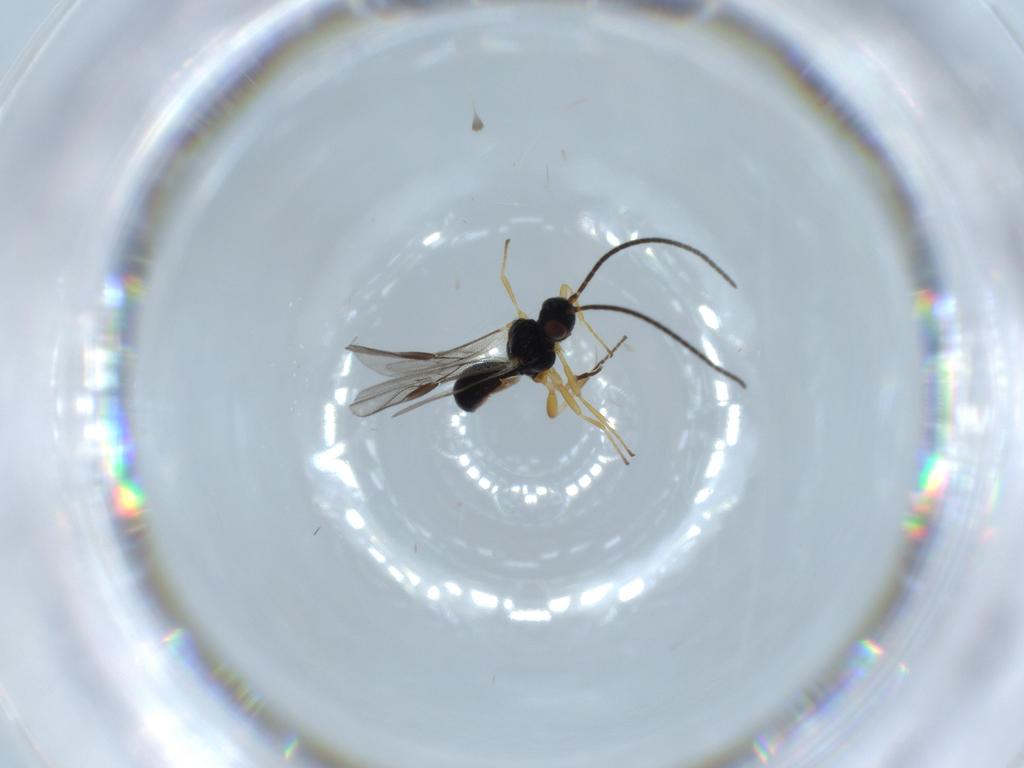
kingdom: Animalia
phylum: Arthropoda
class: Insecta
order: Hymenoptera
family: Braconidae
